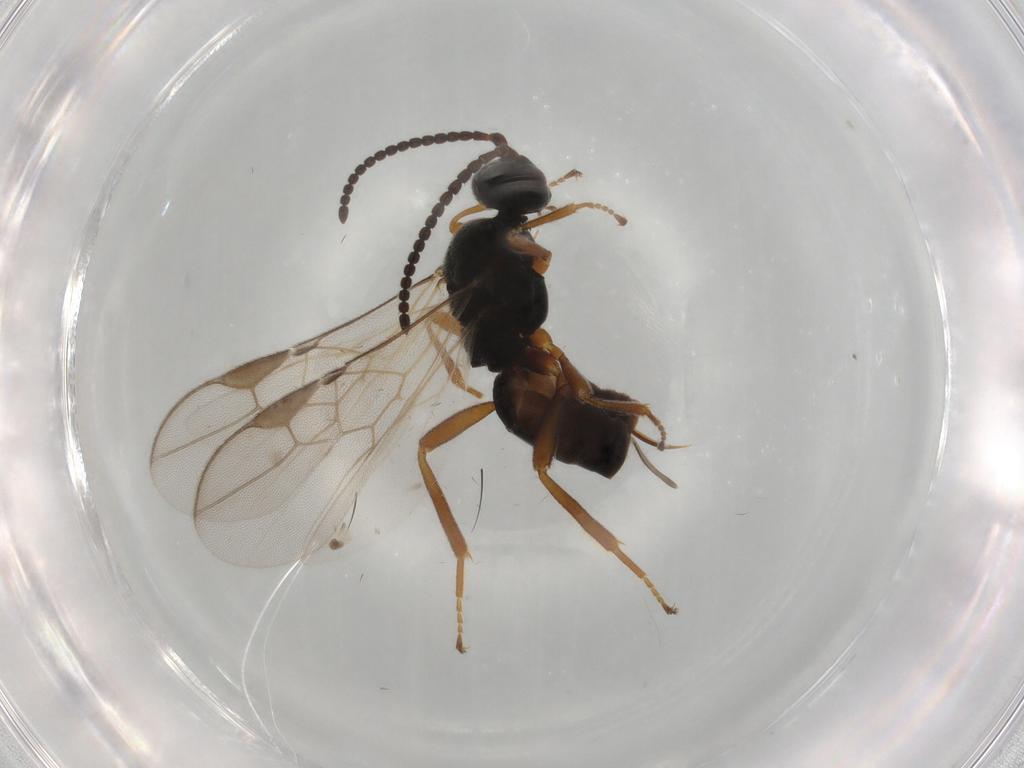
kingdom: Animalia
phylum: Arthropoda
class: Insecta
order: Hymenoptera
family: Braconidae
